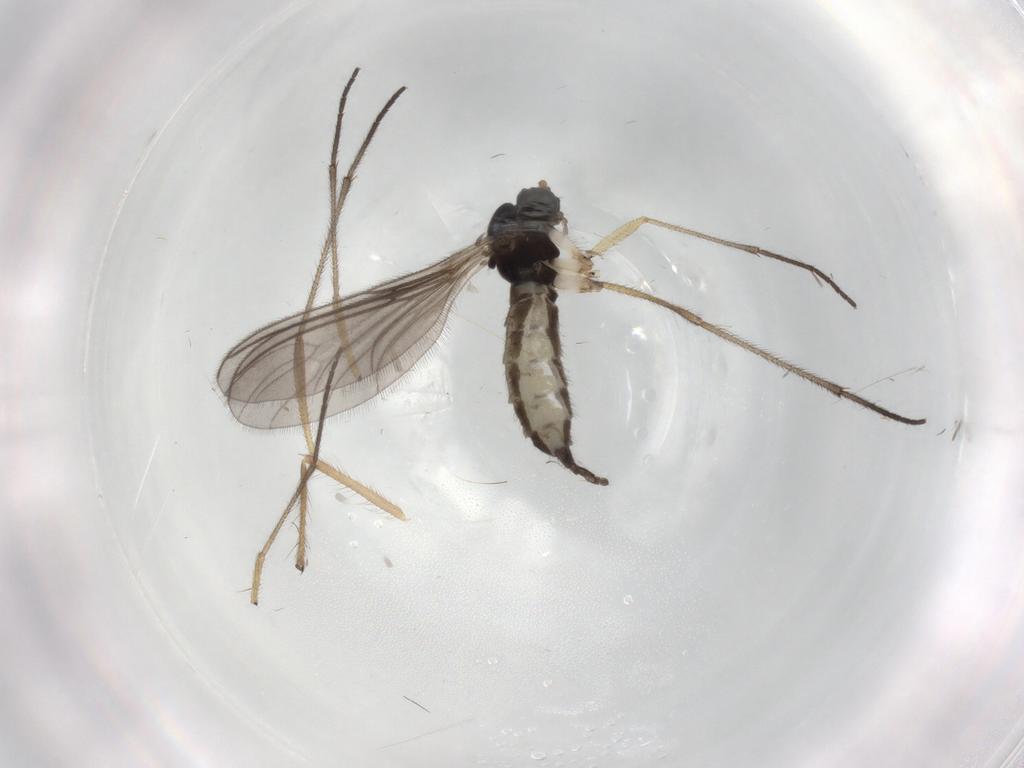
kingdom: Animalia
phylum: Arthropoda
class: Insecta
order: Diptera
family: Sciaridae
